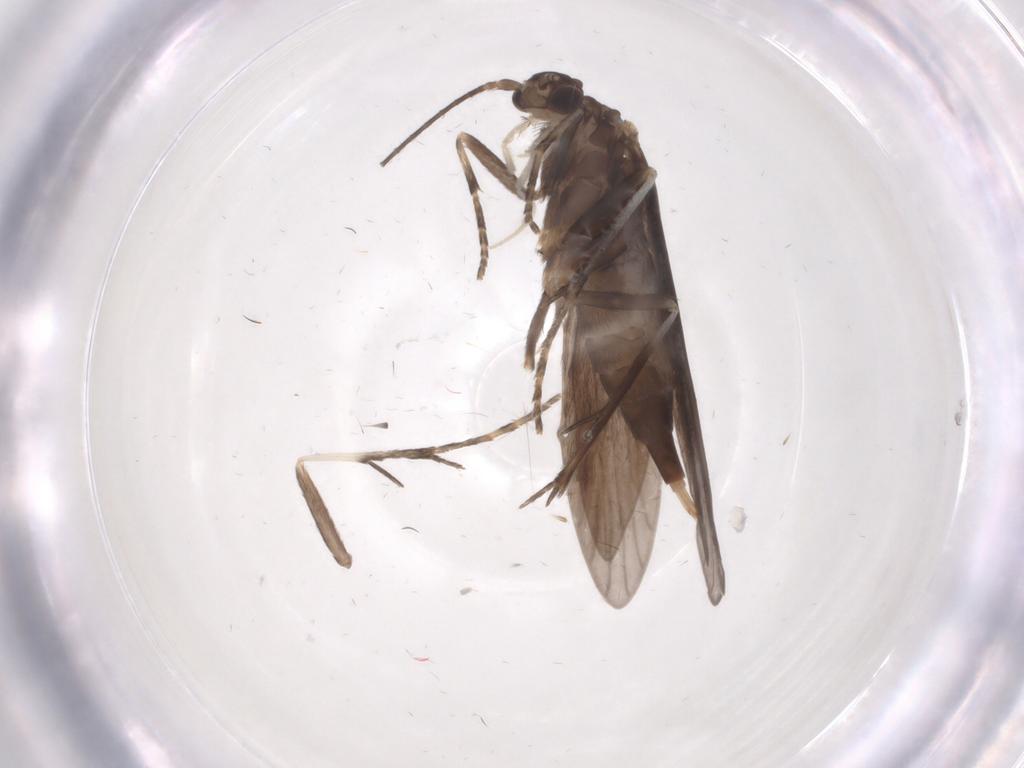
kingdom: Animalia
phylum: Arthropoda
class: Insecta
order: Trichoptera
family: Xiphocentronidae
